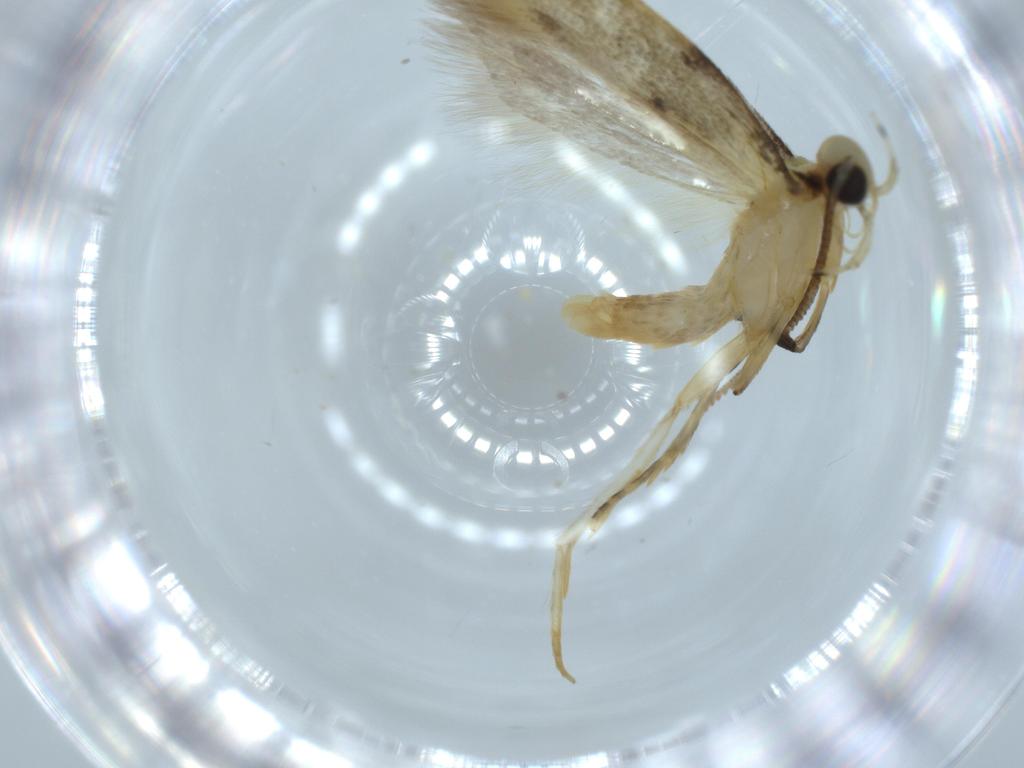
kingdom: Animalia
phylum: Arthropoda
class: Insecta
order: Lepidoptera
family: Autostichidae
